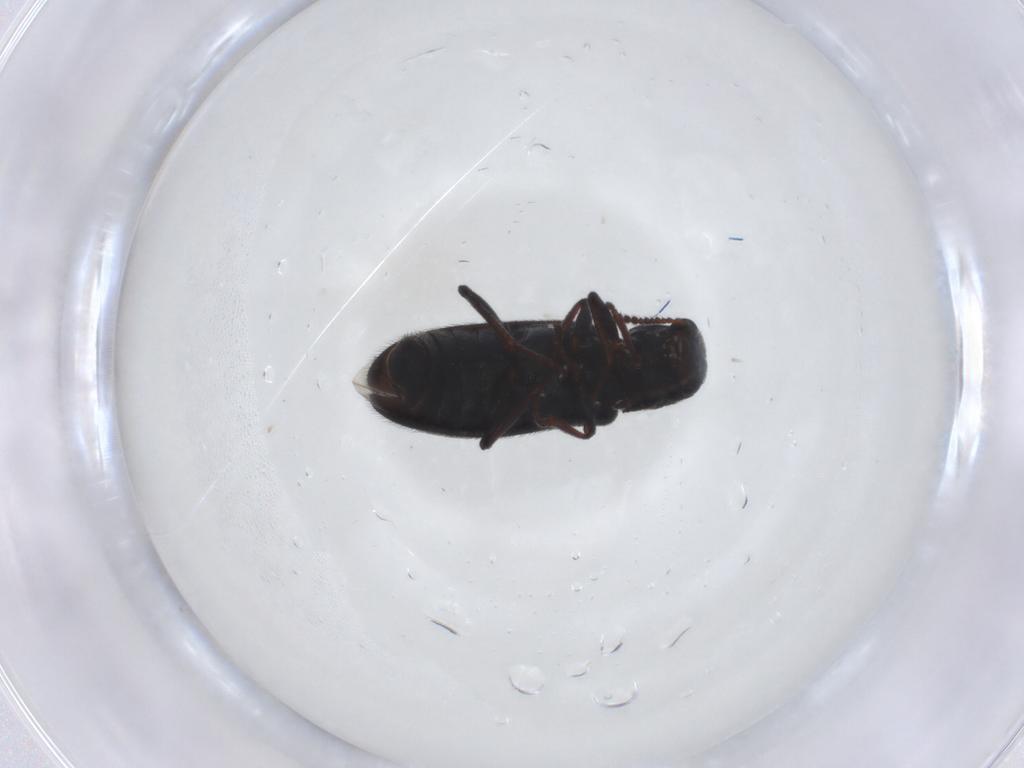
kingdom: Animalia
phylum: Arthropoda
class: Insecta
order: Coleoptera
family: Melyridae
